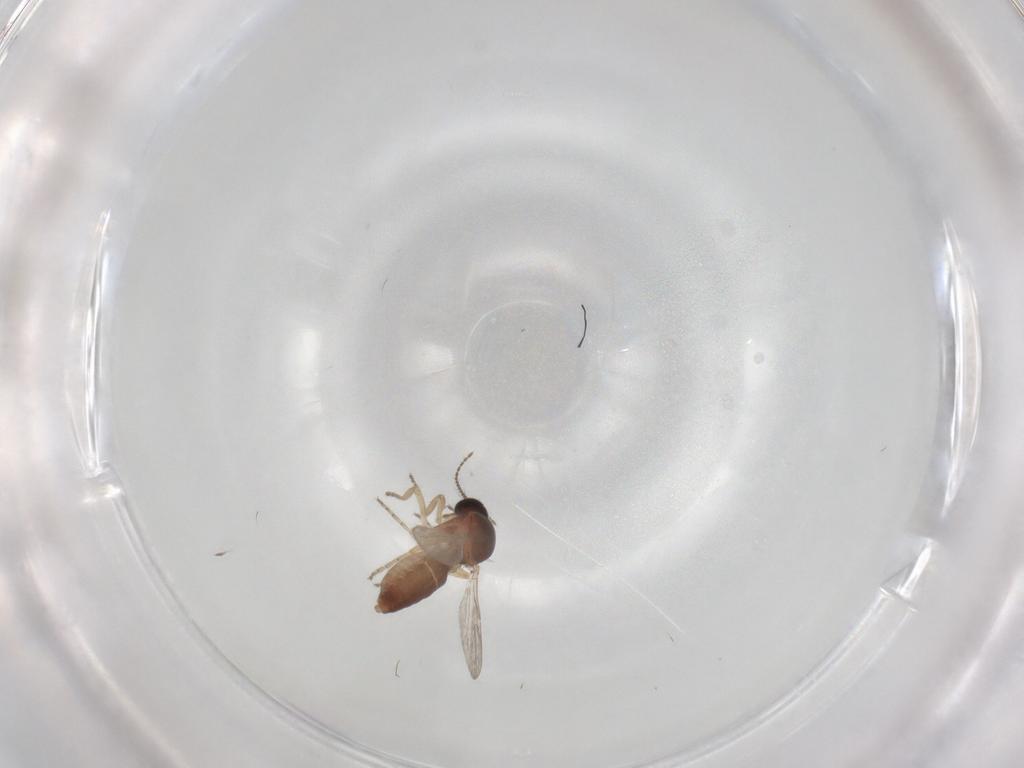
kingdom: Animalia
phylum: Arthropoda
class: Insecta
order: Diptera
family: Ceratopogonidae
